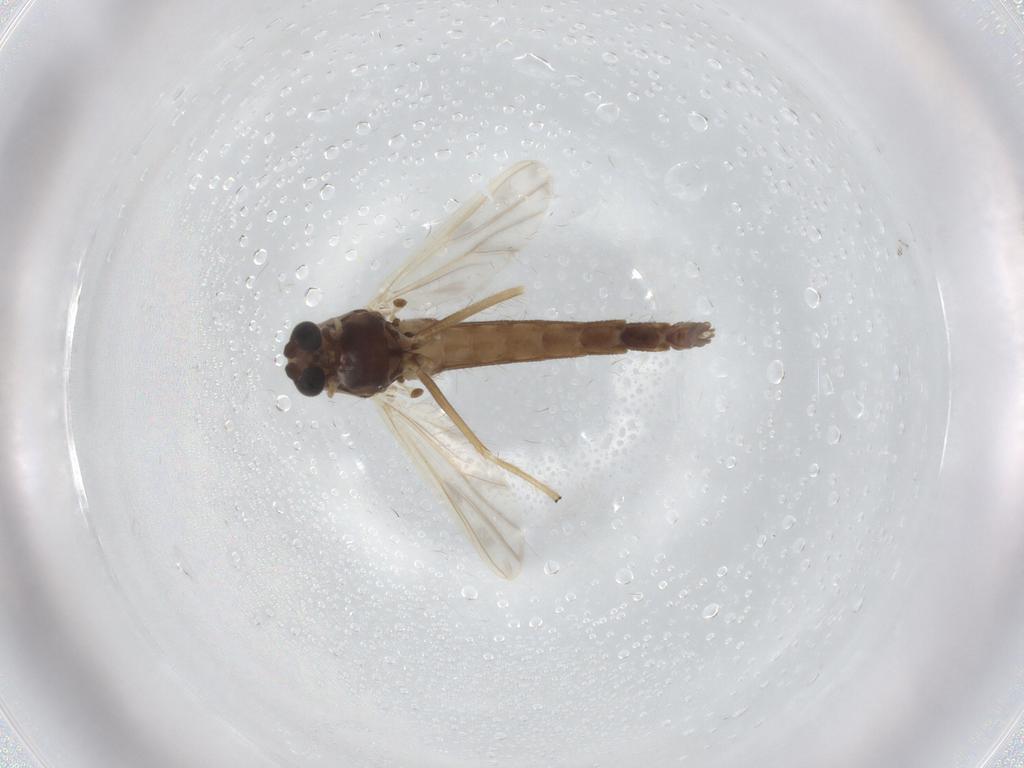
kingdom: Animalia
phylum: Arthropoda
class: Insecta
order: Diptera
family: Chironomidae
